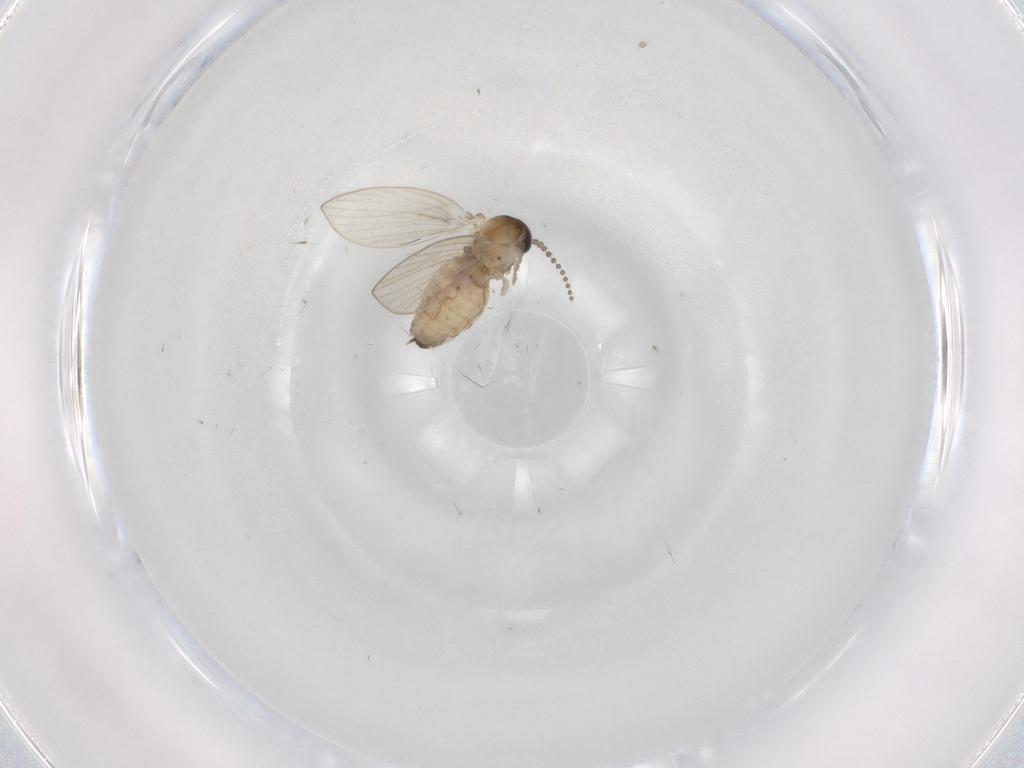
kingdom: Animalia
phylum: Arthropoda
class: Insecta
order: Diptera
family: Psychodidae
